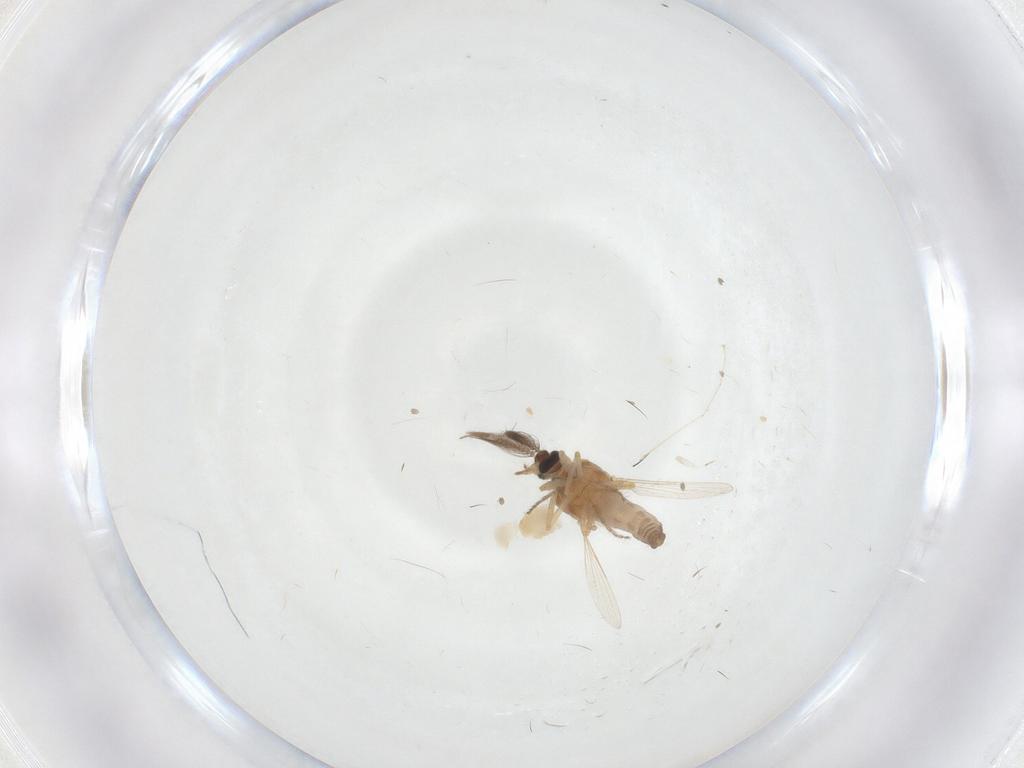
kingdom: Animalia
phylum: Arthropoda
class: Insecta
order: Diptera
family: Ceratopogonidae
